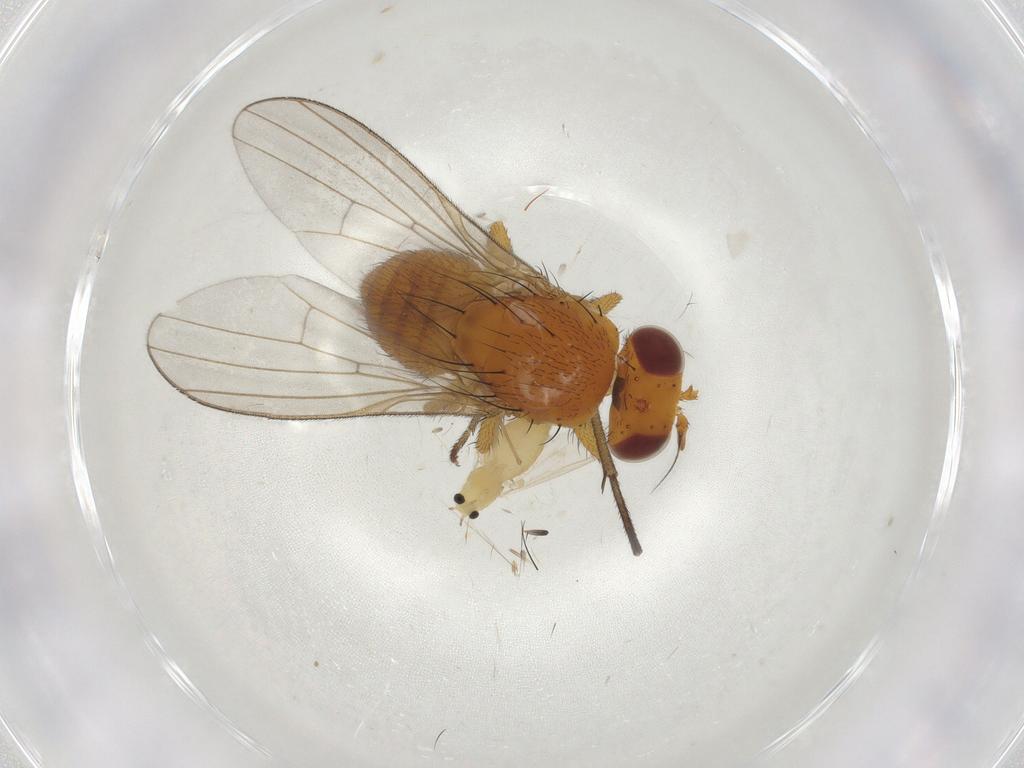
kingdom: Animalia
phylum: Arthropoda
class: Insecta
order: Diptera
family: Lauxaniidae
